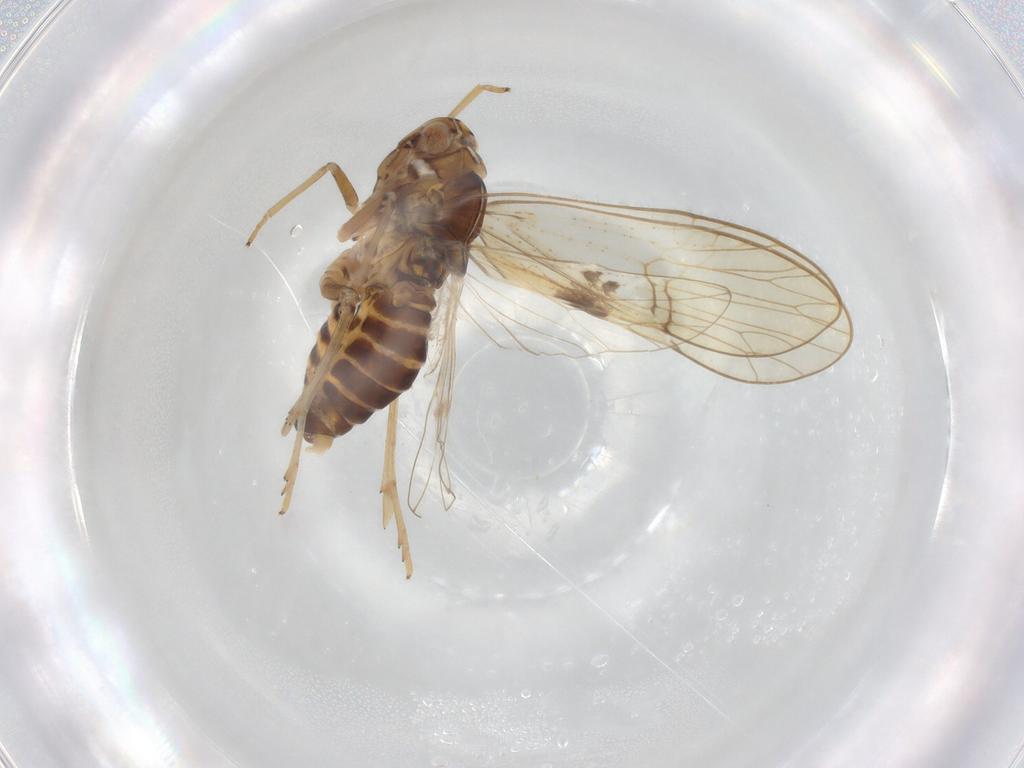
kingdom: Animalia
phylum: Arthropoda
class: Insecta
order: Hemiptera
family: Delphacidae
